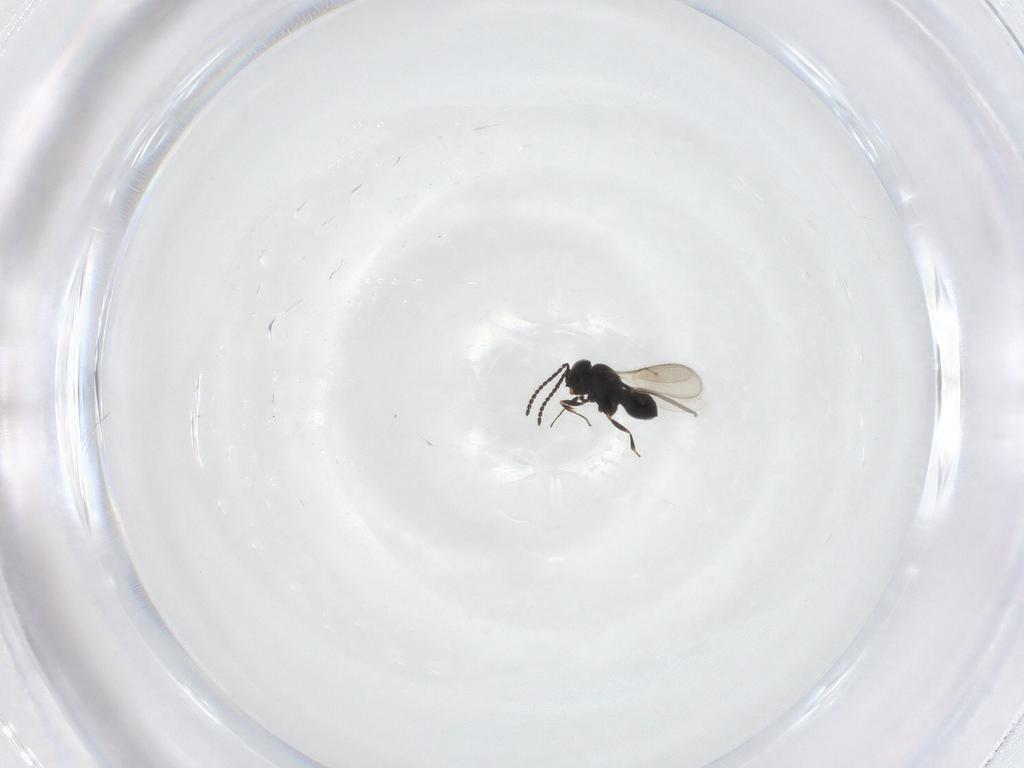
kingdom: Animalia
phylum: Arthropoda
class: Insecta
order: Hymenoptera
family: Scelionidae
